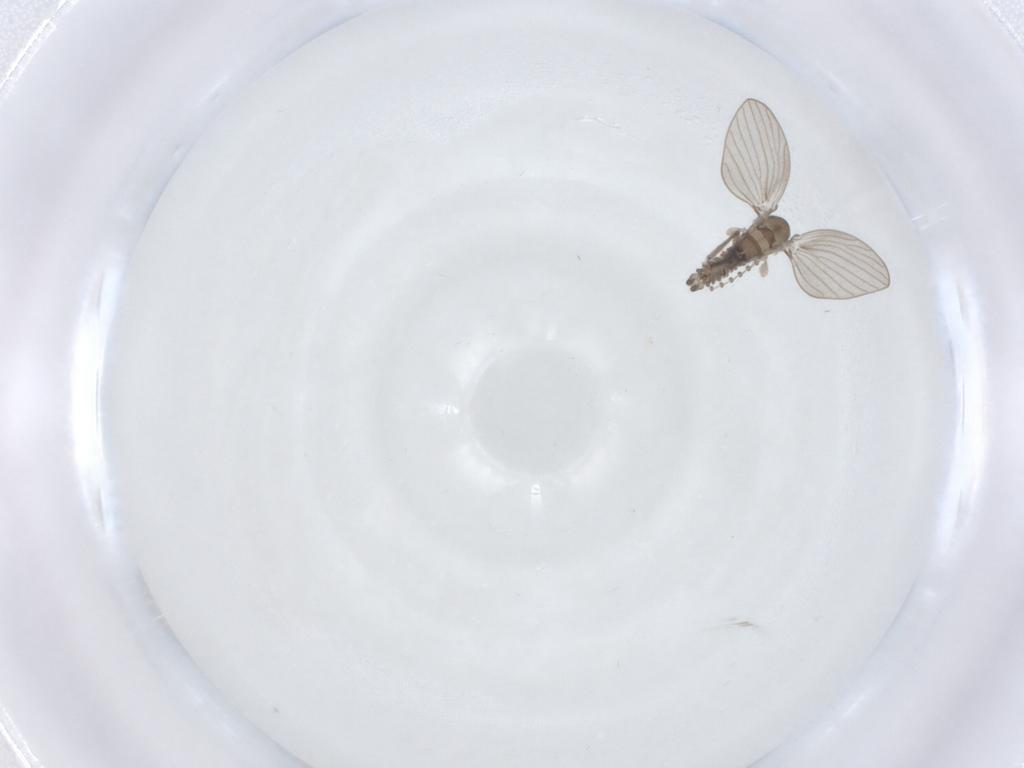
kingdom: Animalia
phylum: Arthropoda
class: Insecta
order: Diptera
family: Psychodidae
